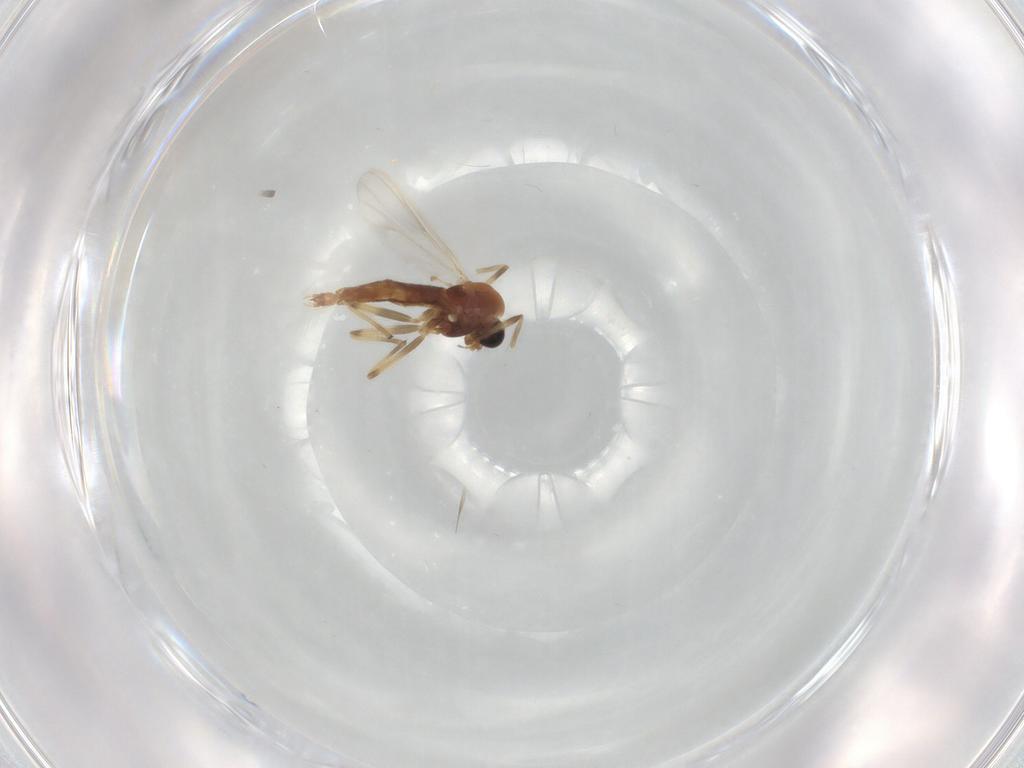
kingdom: Animalia
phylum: Arthropoda
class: Insecta
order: Diptera
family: Chironomidae
